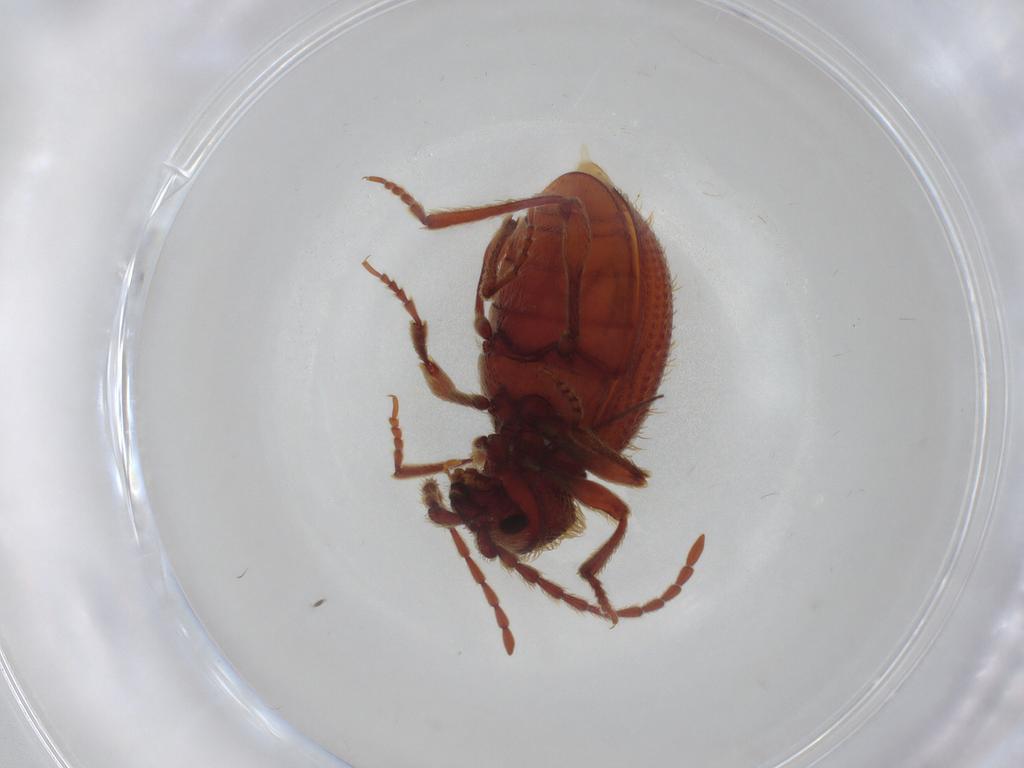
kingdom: Animalia
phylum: Arthropoda
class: Insecta
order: Coleoptera
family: Ptinidae
